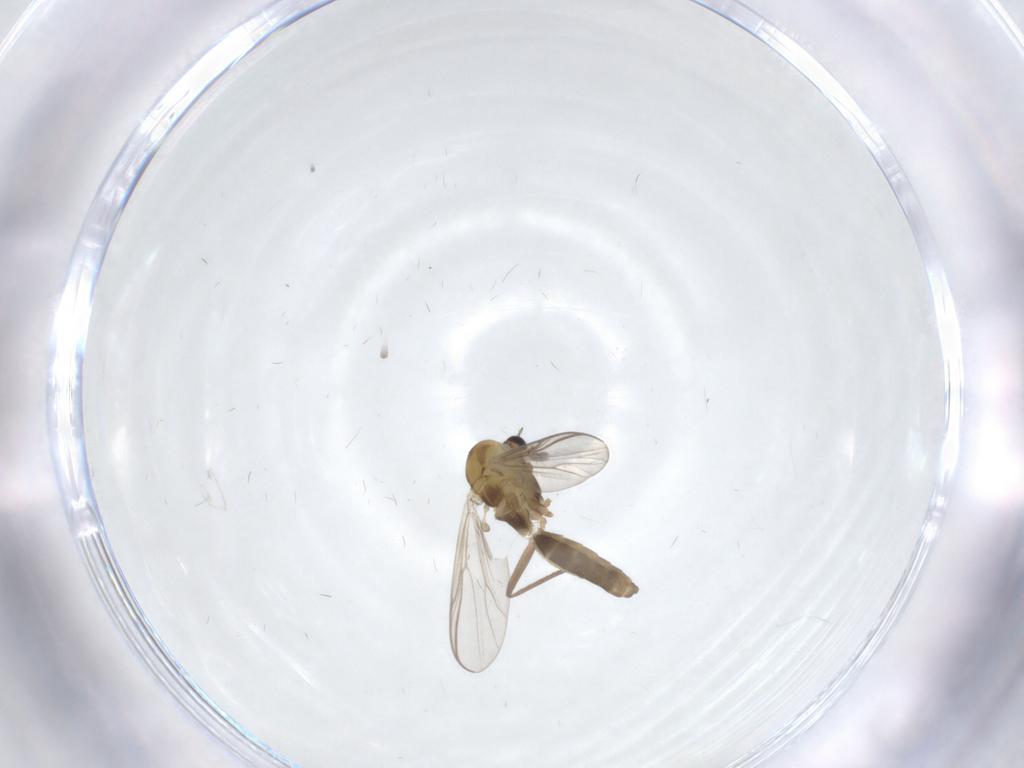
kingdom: Animalia
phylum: Arthropoda
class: Insecta
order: Diptera
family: Chironomidae
